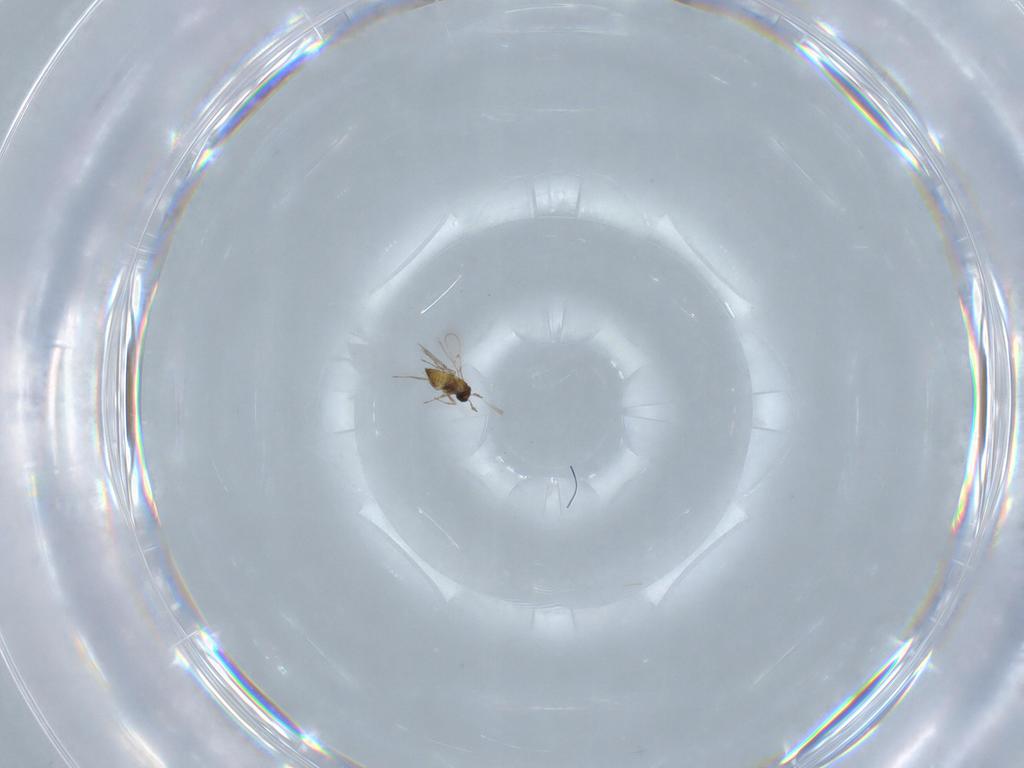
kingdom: Animalia
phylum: Arthropoda
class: Insecta
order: Hymenoptera
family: Trichogrammatidae
